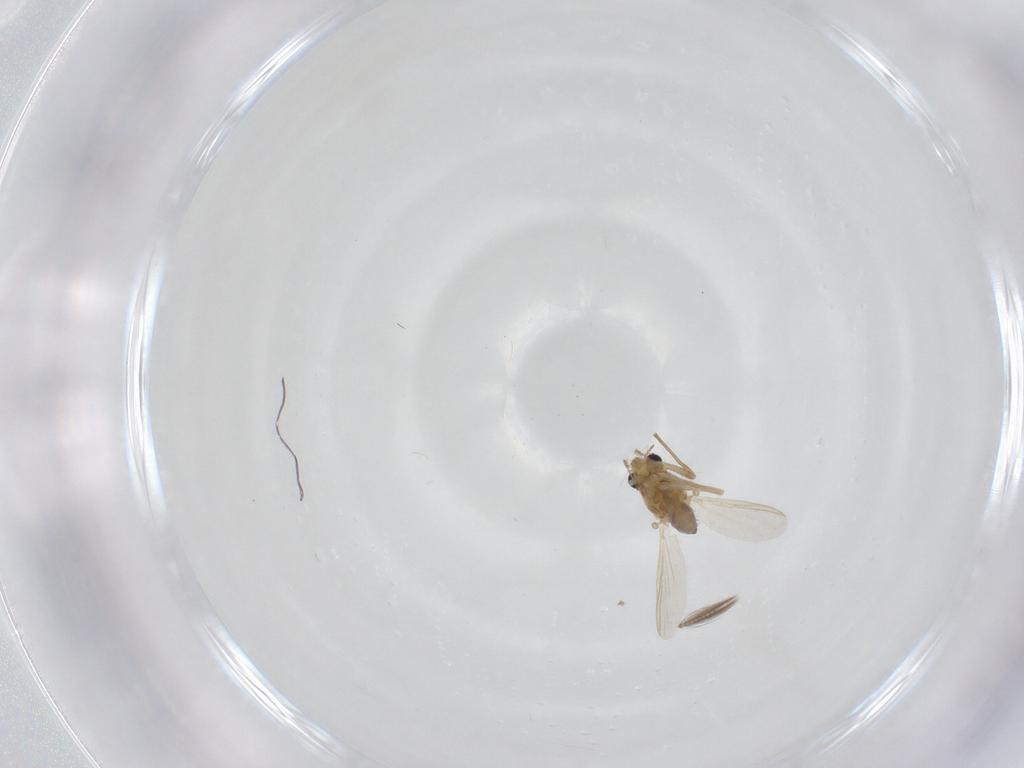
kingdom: Animalia
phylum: Arthropoda
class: Insecta
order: Diptera
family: Chironomidae
